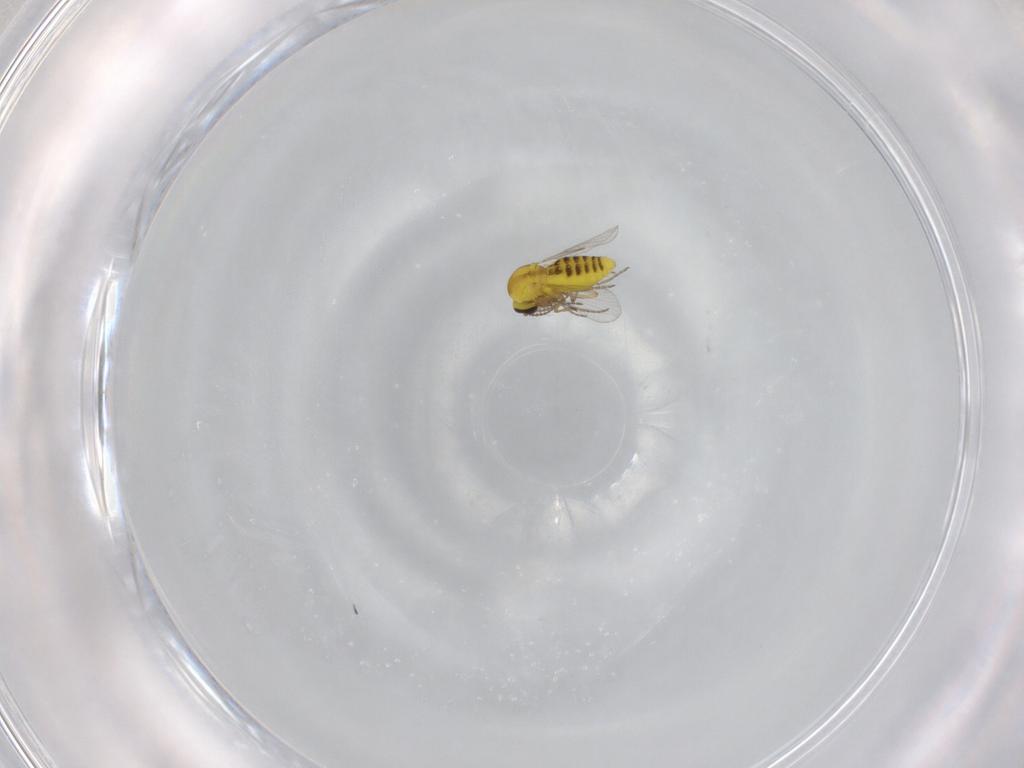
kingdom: Animalia
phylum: Arthropoda
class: Insecta
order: Diptera
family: Ceratopogonidae
